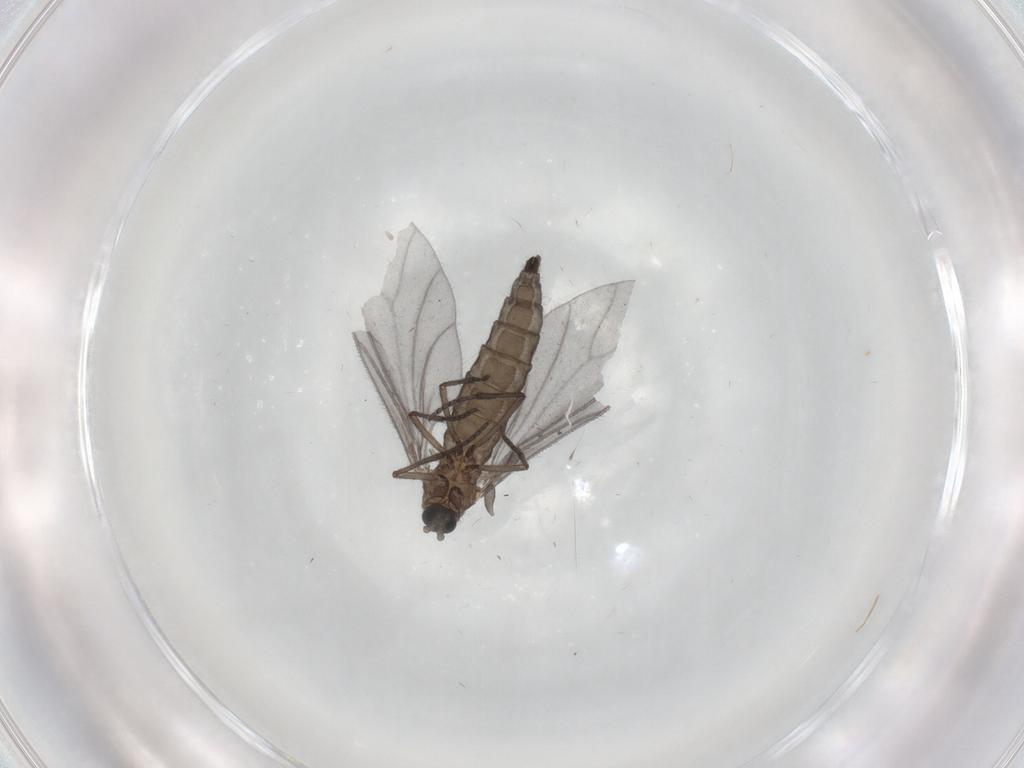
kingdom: Animalia
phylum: Arthropoda
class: Insecta
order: Diptera
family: Sciaridae
